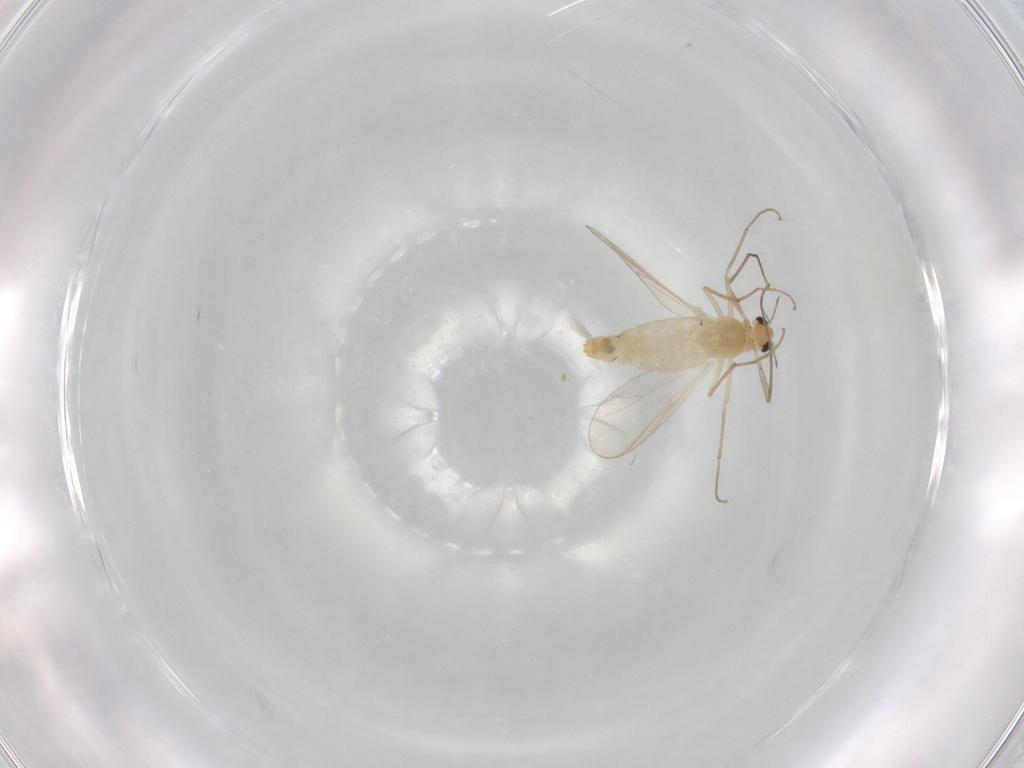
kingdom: Animalia
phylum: Arthropoda
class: Insecta
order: Diptera
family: Chironomidae
